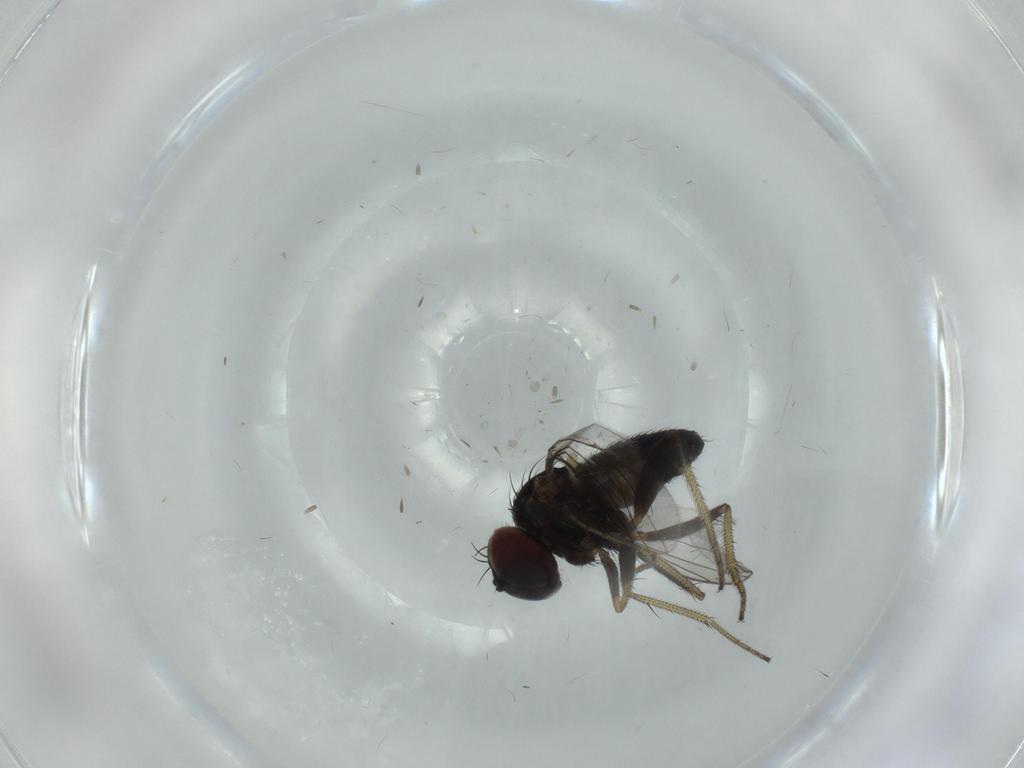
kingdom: Animalia
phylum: Arthropoda
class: Insecta
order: Diptera
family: Dolichopodidae
